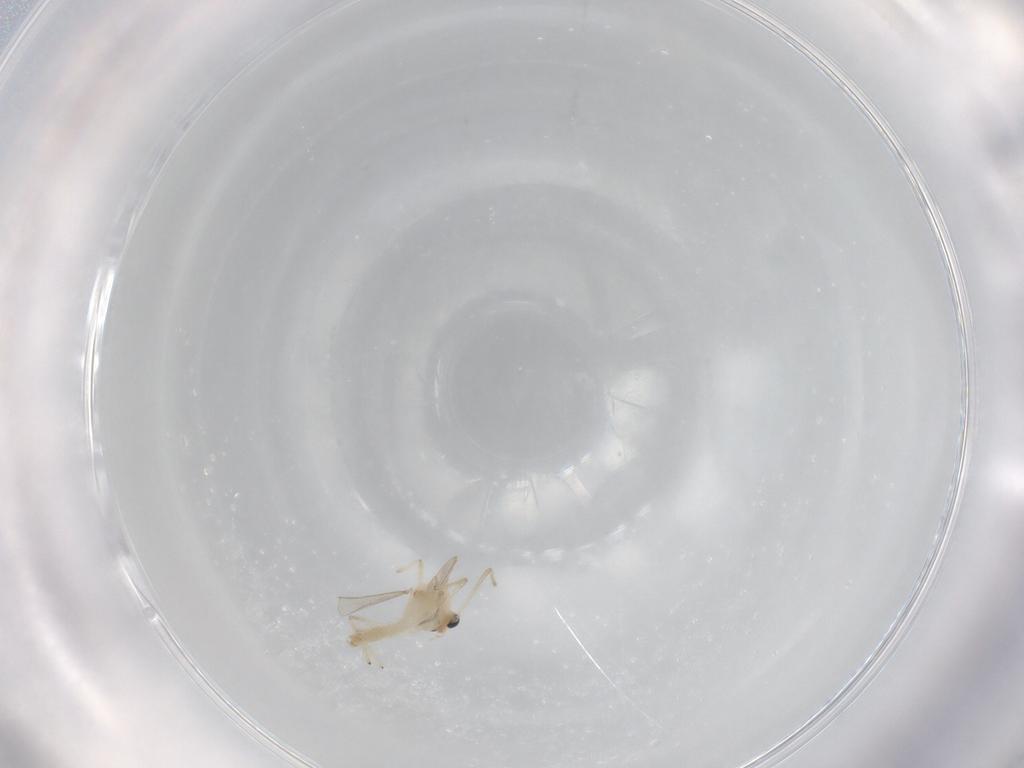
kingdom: Animalia
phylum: Arthropoda
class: Insecta
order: Diptera
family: Chironomidae
